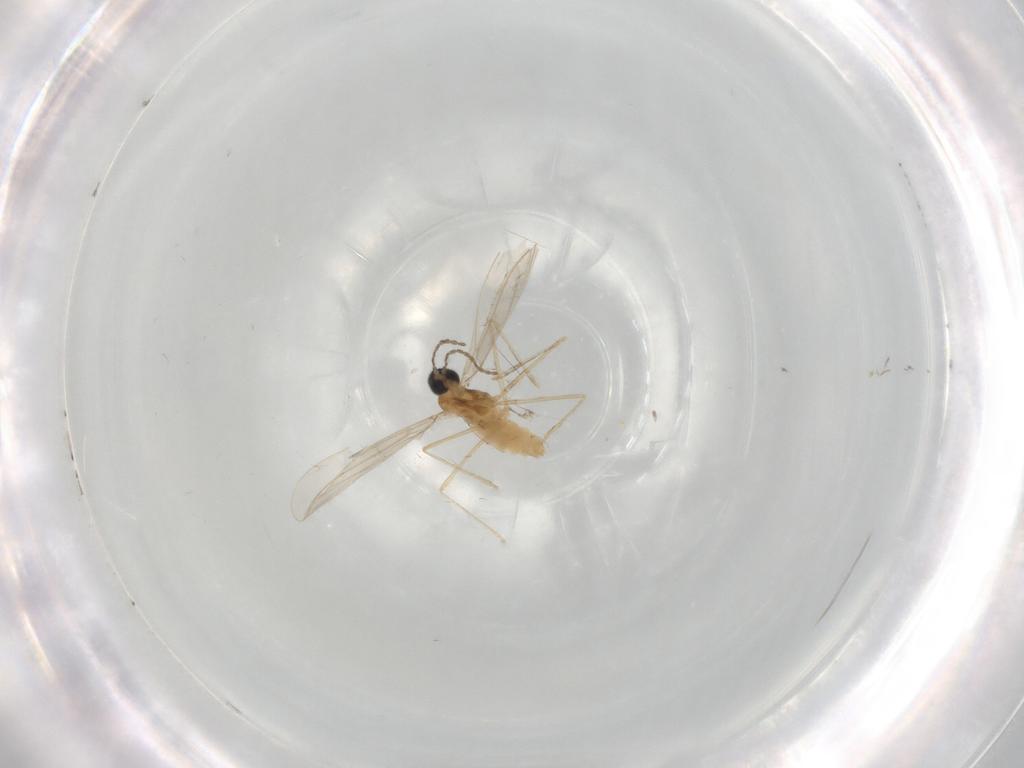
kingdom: Animalia
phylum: Arthropoda
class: Insecta
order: Diptera
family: Cecidomyiidae
